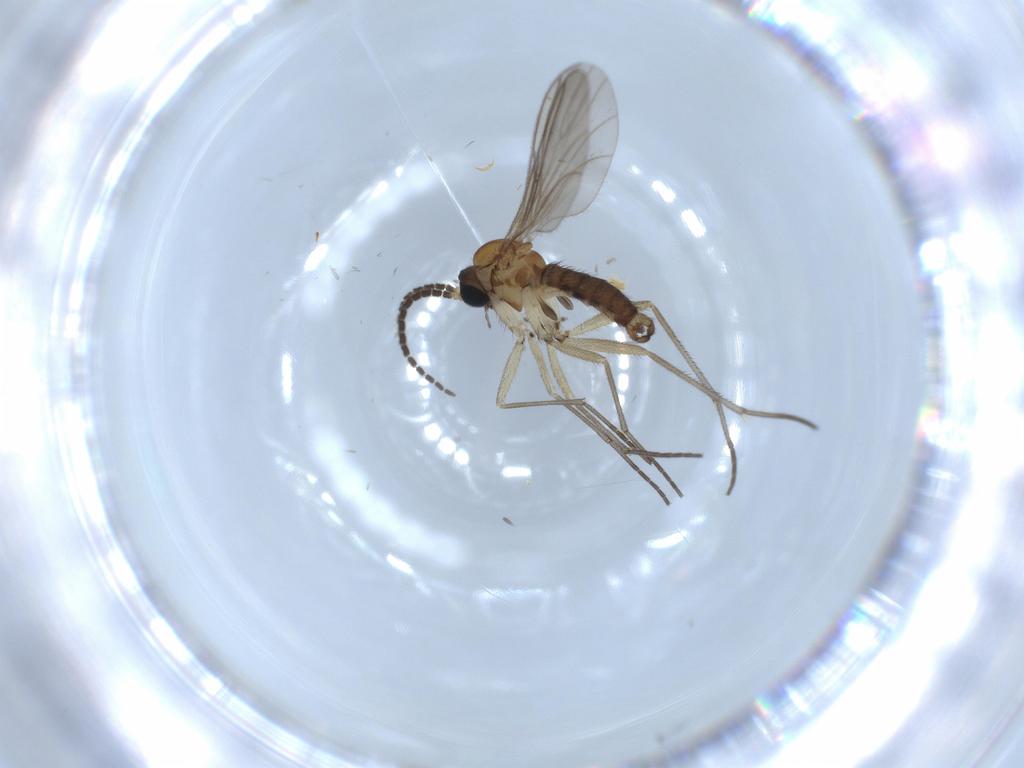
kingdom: Animalia
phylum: Arthropoda
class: Insecta
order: Diptera
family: Sciaridae
